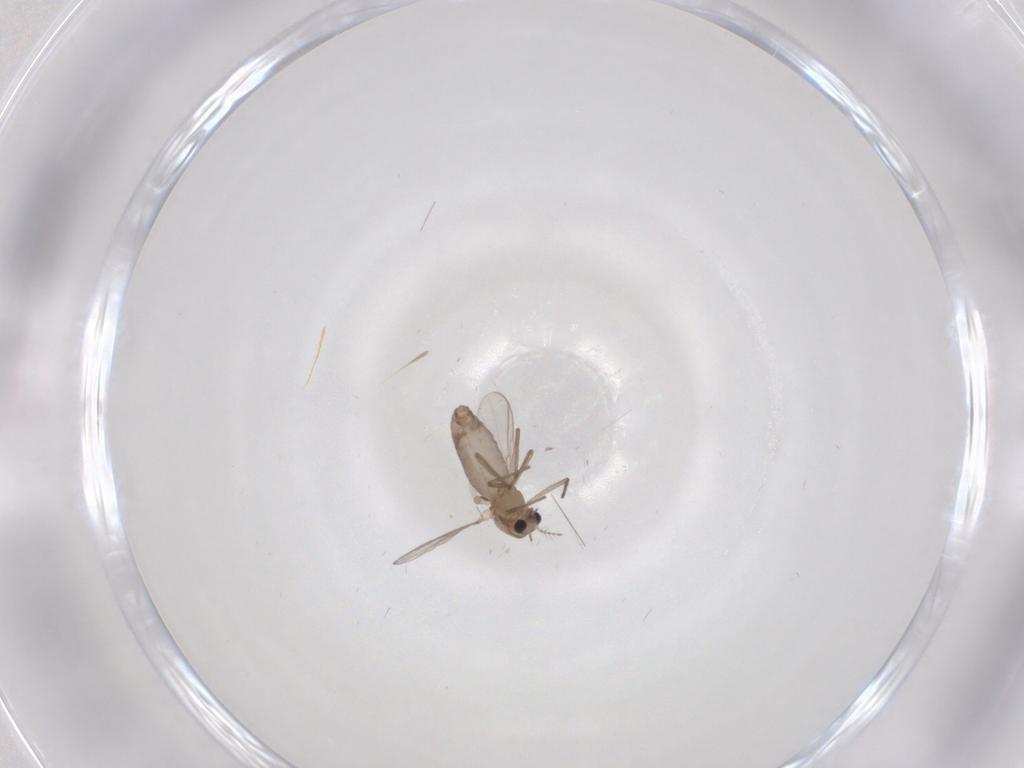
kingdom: Animalia
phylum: Arthropoda
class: Insecta
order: Diptera
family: Chironomidae
